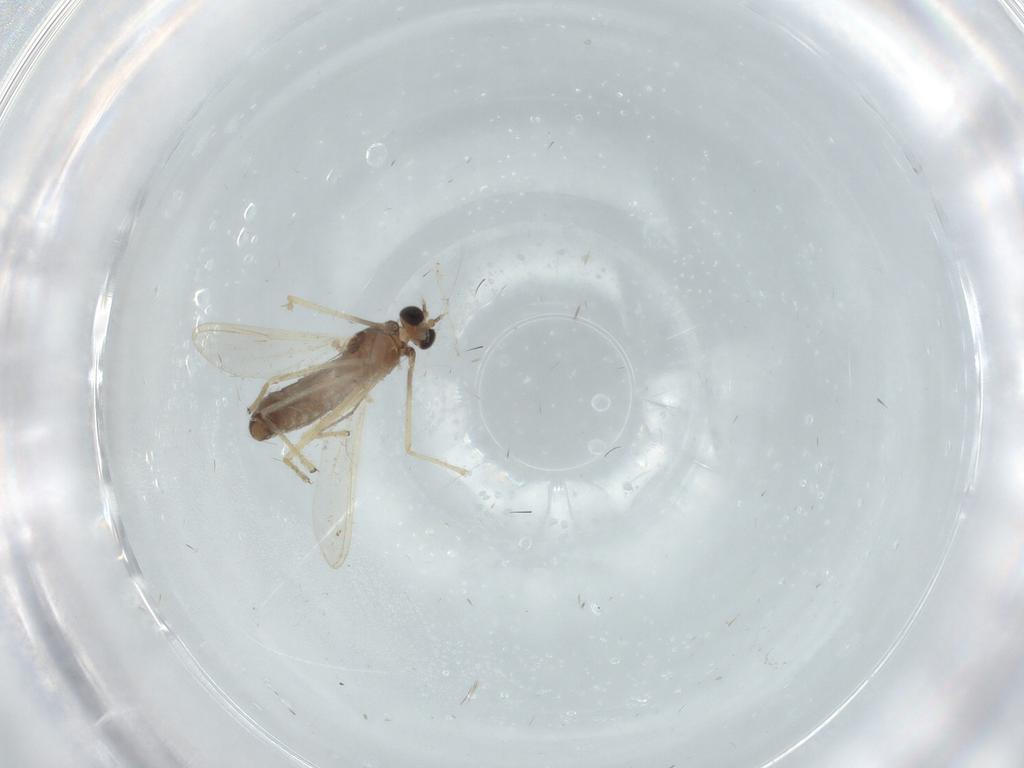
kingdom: Animalia
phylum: Arthropoda
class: Insecta
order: Diptera
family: Chironomidae
